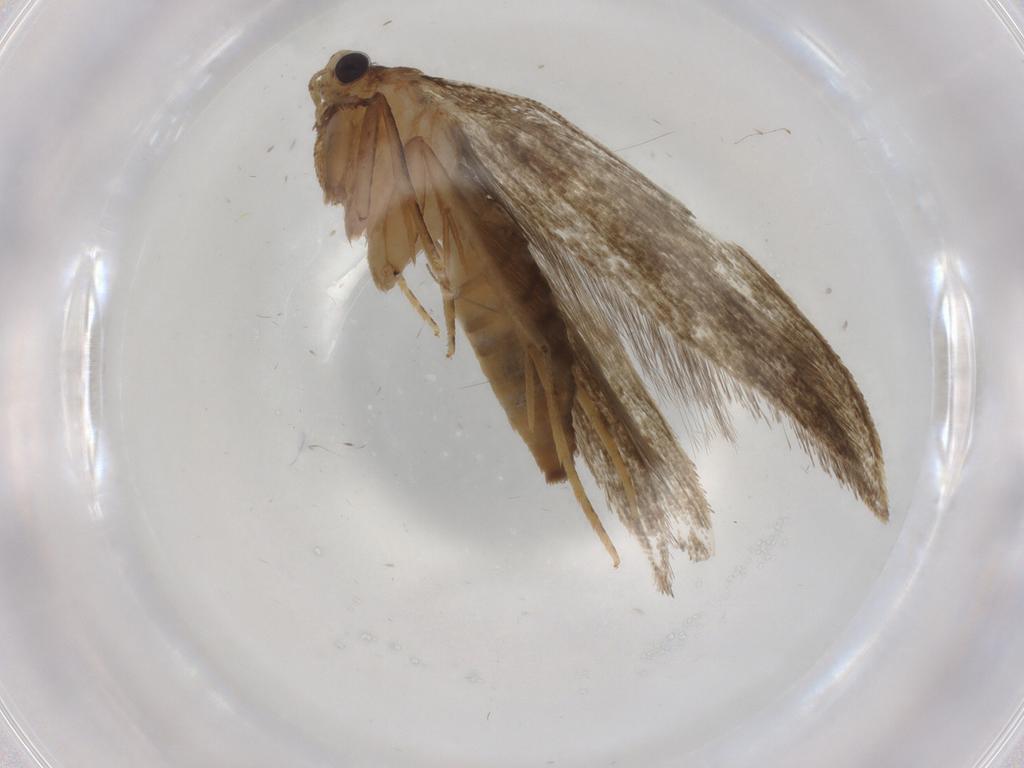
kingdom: Animalia
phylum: Arthropoda
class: Insecta
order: Lepidoptera
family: Tineidae
